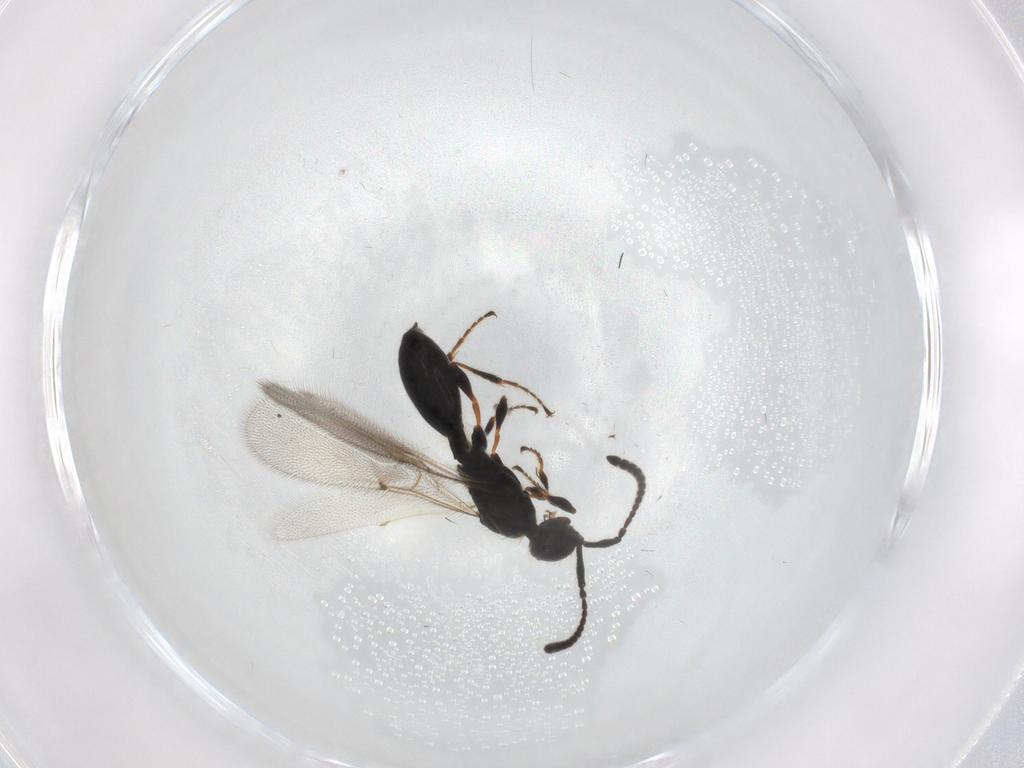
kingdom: Animalia
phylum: Arthropoda
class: Insecta
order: Hymenoptera
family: Diapriidae
